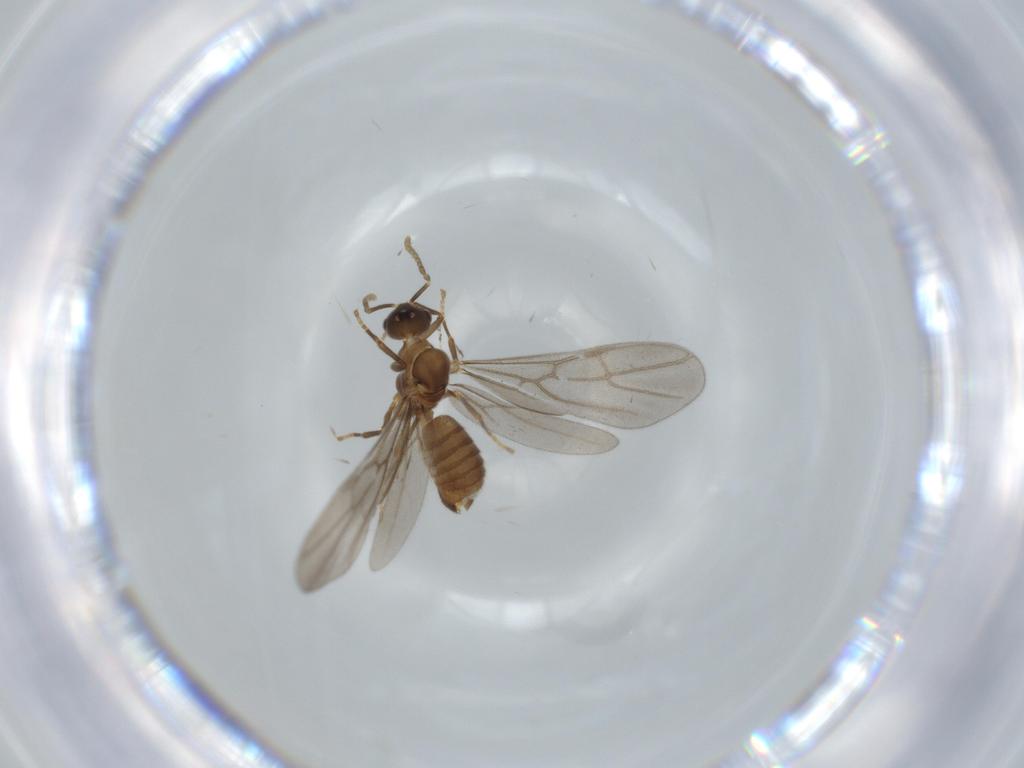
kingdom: Animalia
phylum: Arthropoda
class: Insecta
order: Hymenoptera
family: Formicidae
